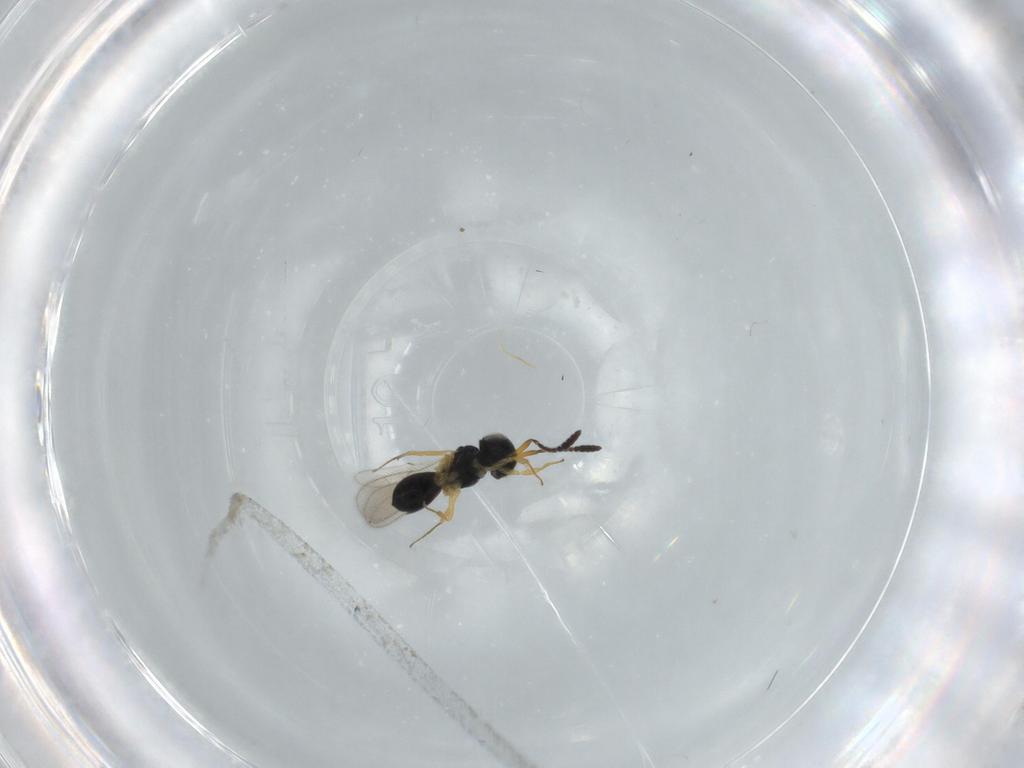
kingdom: Animalia
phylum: Arthropoda
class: Insecta
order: Hymenoptera
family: Scelionidae
